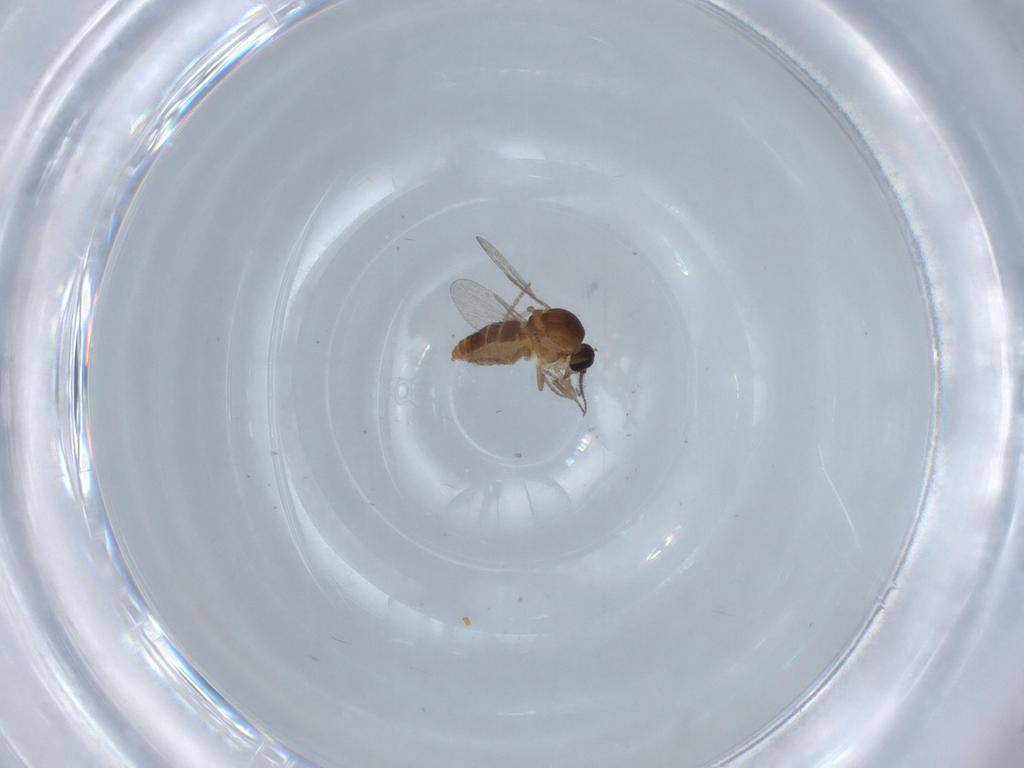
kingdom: Animalia
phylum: Arthropoda
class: Insecta
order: Diptera
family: Ceratopogonidae
